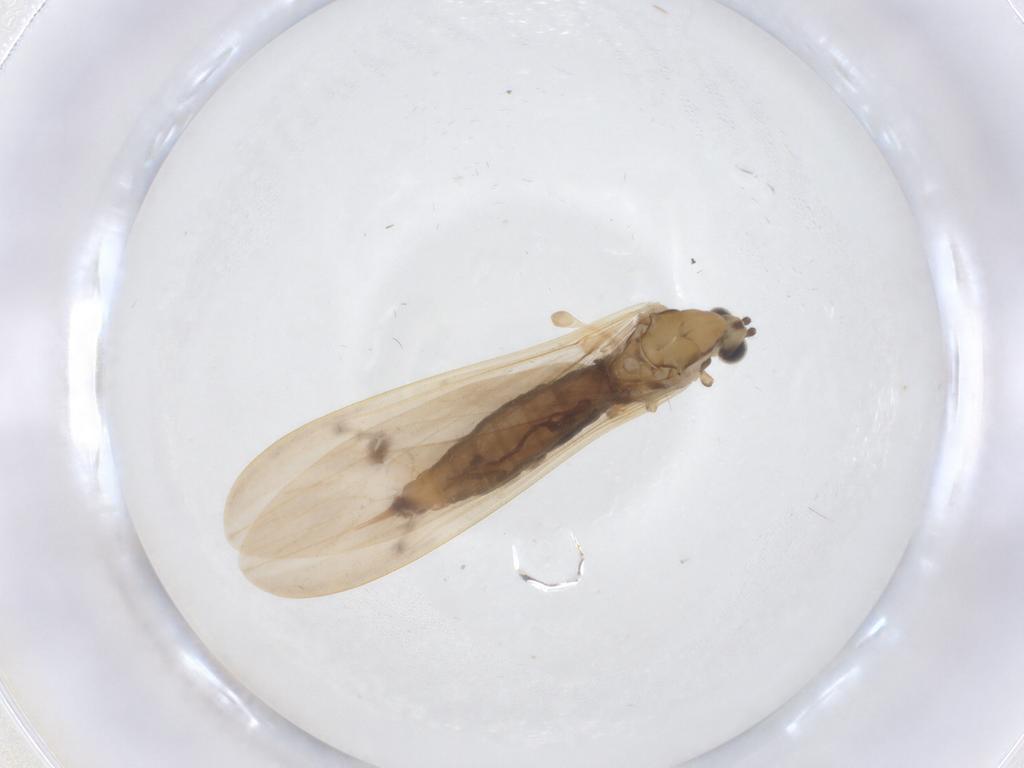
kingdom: Animalia
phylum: Arthropoda
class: Insecta
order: Diptera
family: Limoniidae
